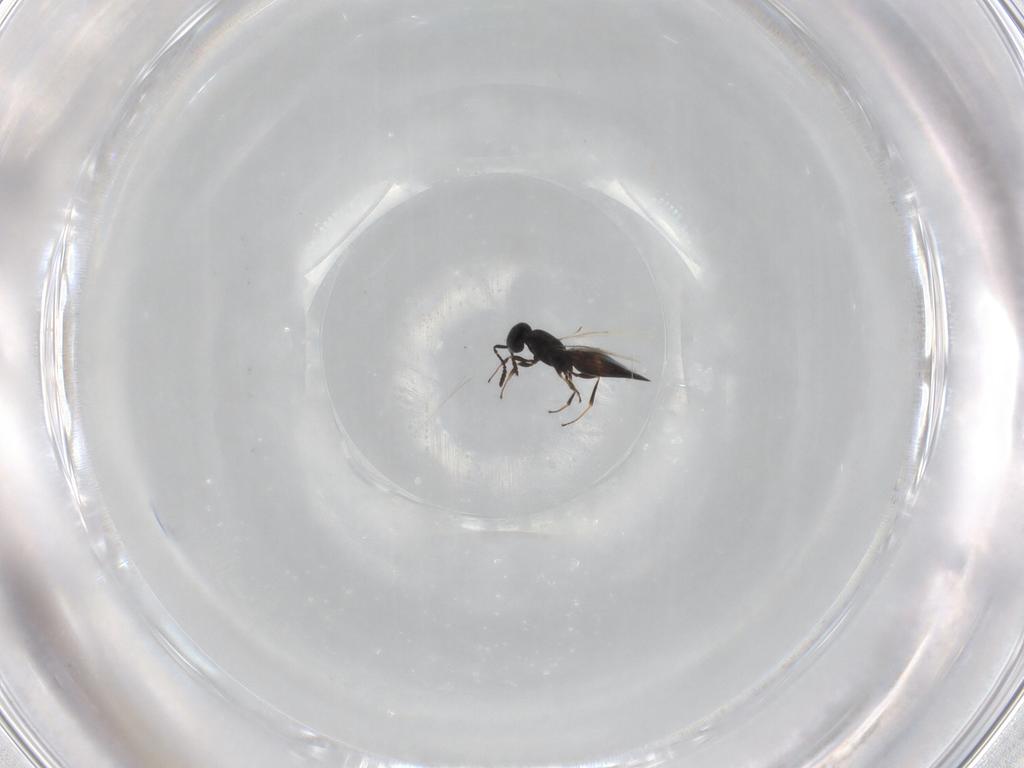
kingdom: Animalia
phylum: Arthropoda
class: Insecta
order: Hymenoptera
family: Scelionidae
